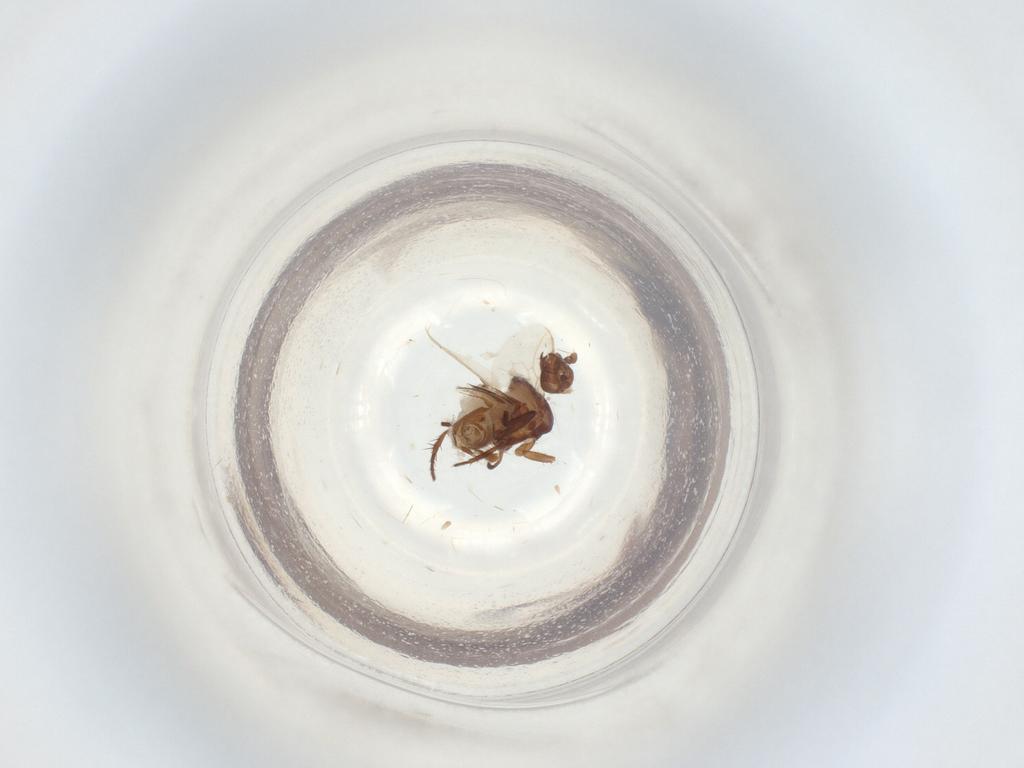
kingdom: Animalia
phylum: Arthropoda
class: Insecta
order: Diptera
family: Sphaeroceridae
